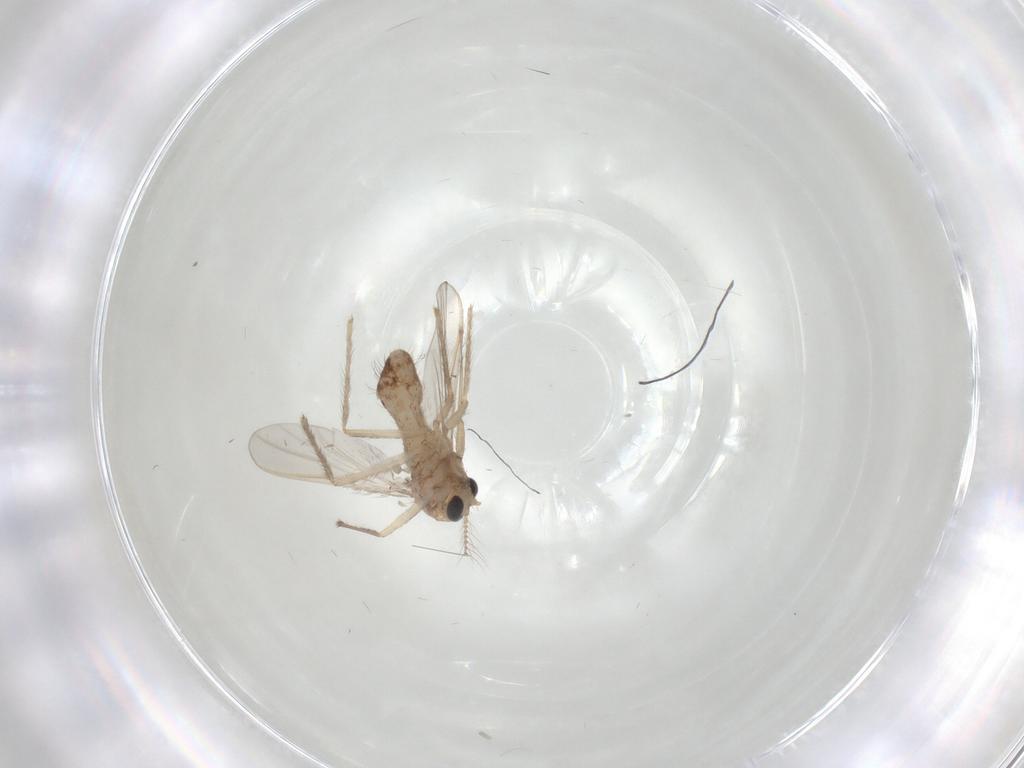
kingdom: Animalia
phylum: Arthropoda
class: Insecta
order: Diptera
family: Chironomidae
